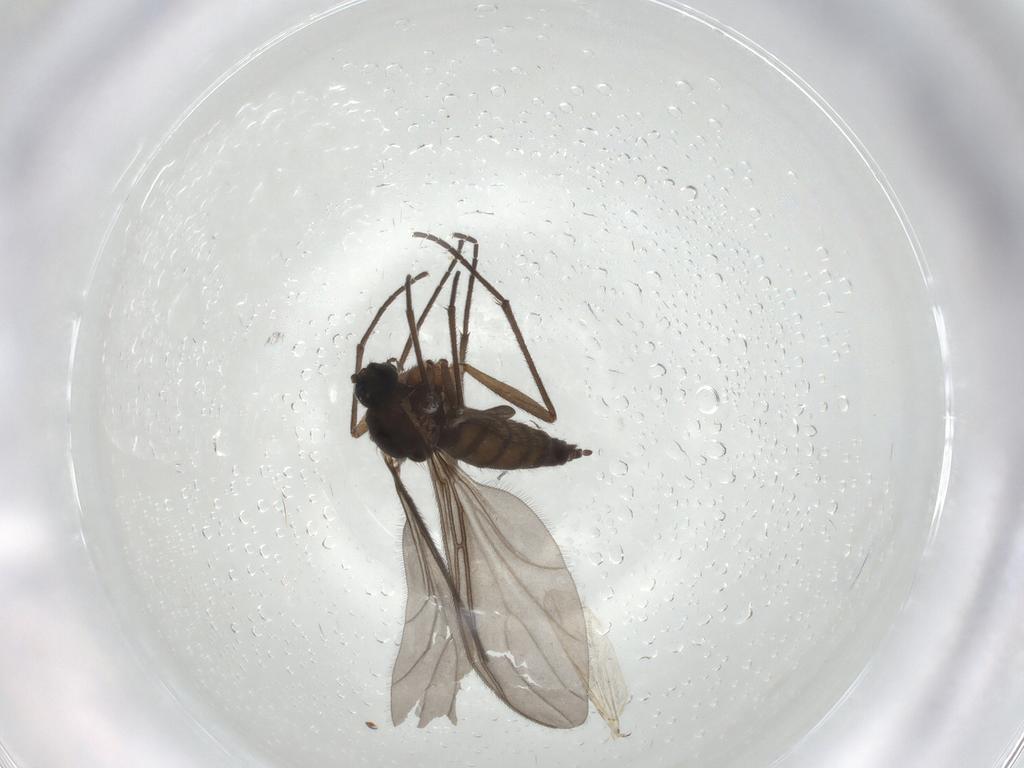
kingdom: Animalia
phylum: Arthropoda
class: Insecta
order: Diptera
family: Sciaridae
